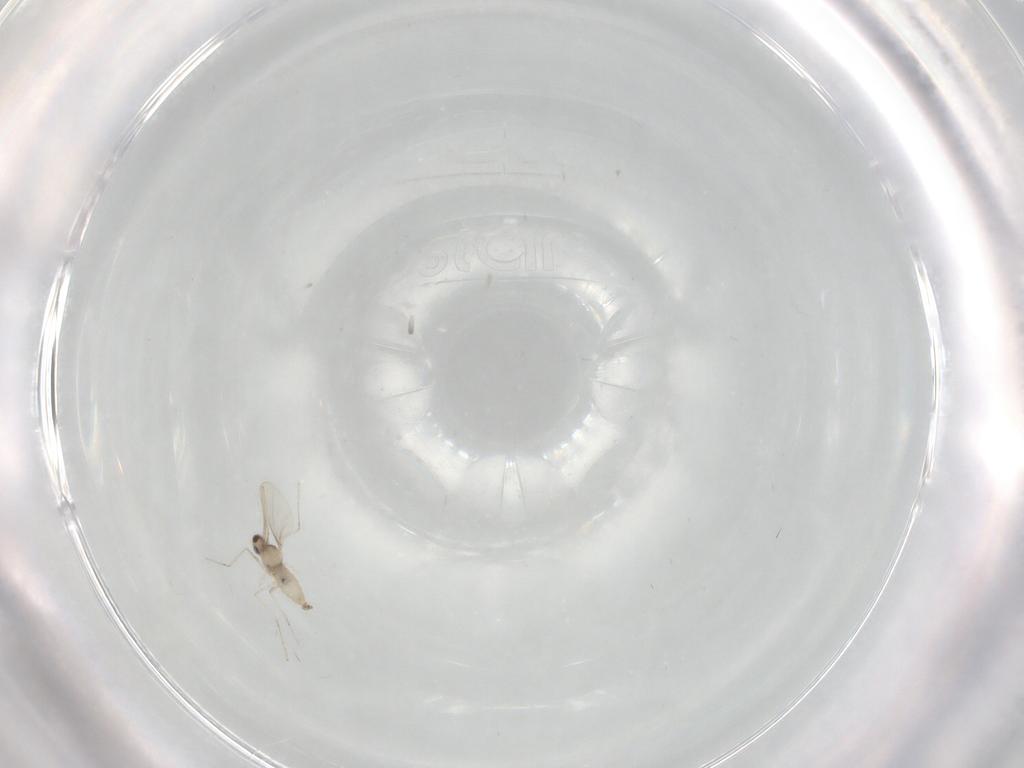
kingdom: Animalia
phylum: Arthropoda
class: Insecta
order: Diptera
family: Cecidomyiidae
